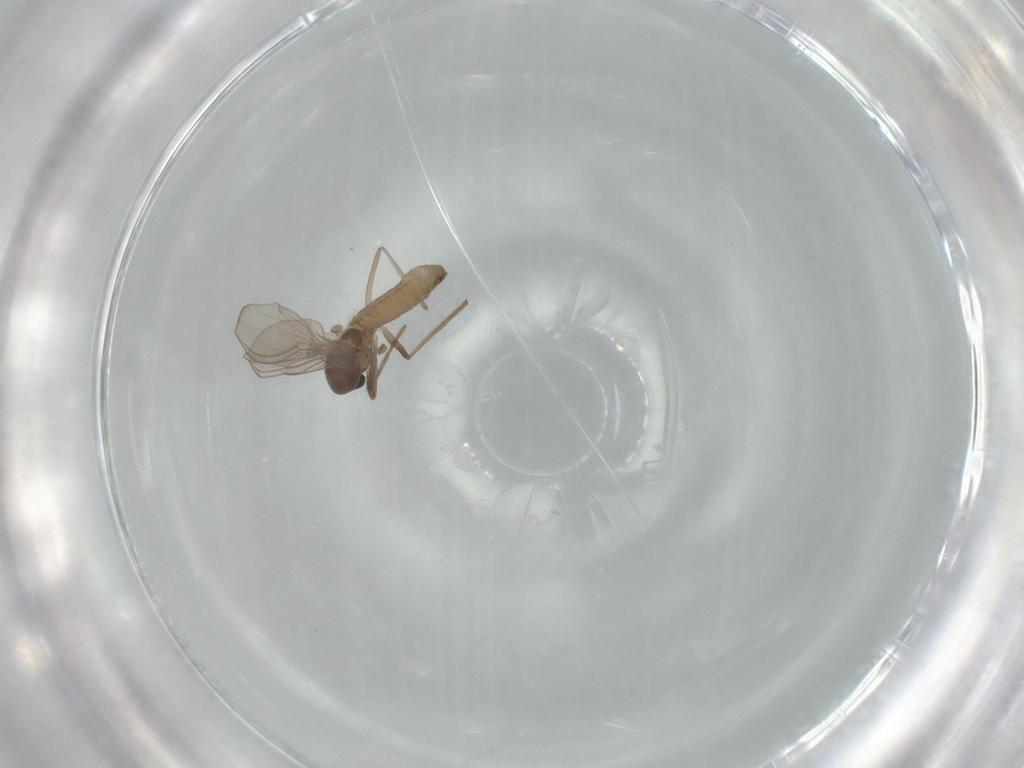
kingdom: Animalia
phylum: Arthropoda
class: Insecta
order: Diptera
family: Chironomidae
